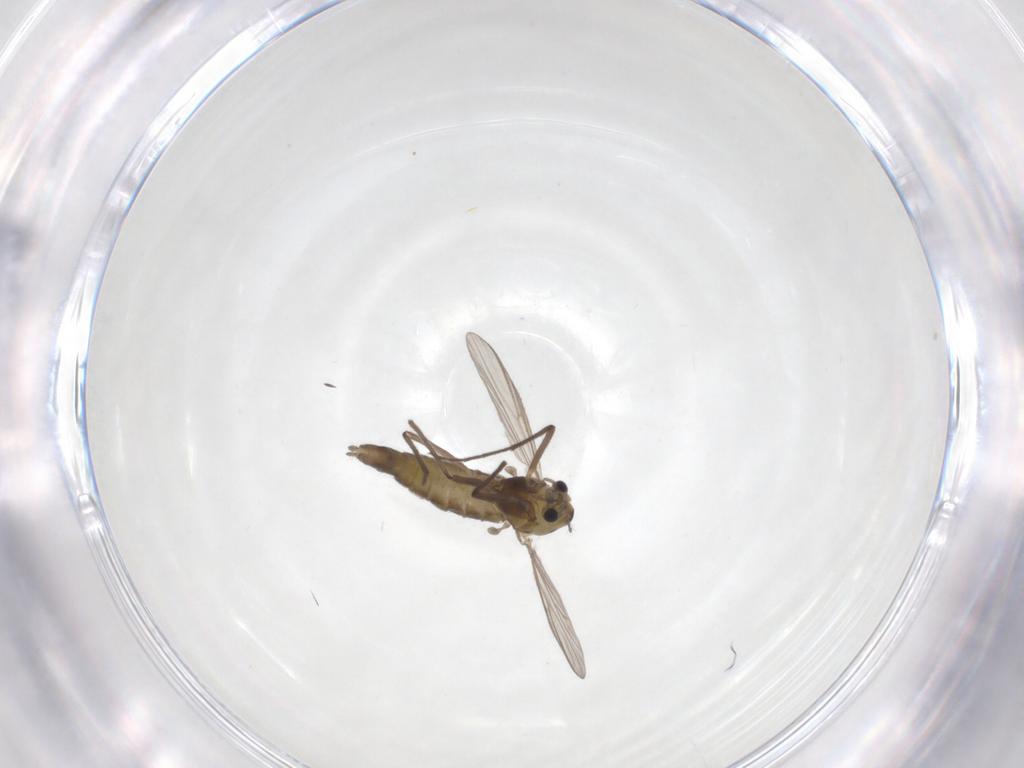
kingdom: Animalia
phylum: Arthropoda
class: Insecta
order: Diptera
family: Chironomidae
